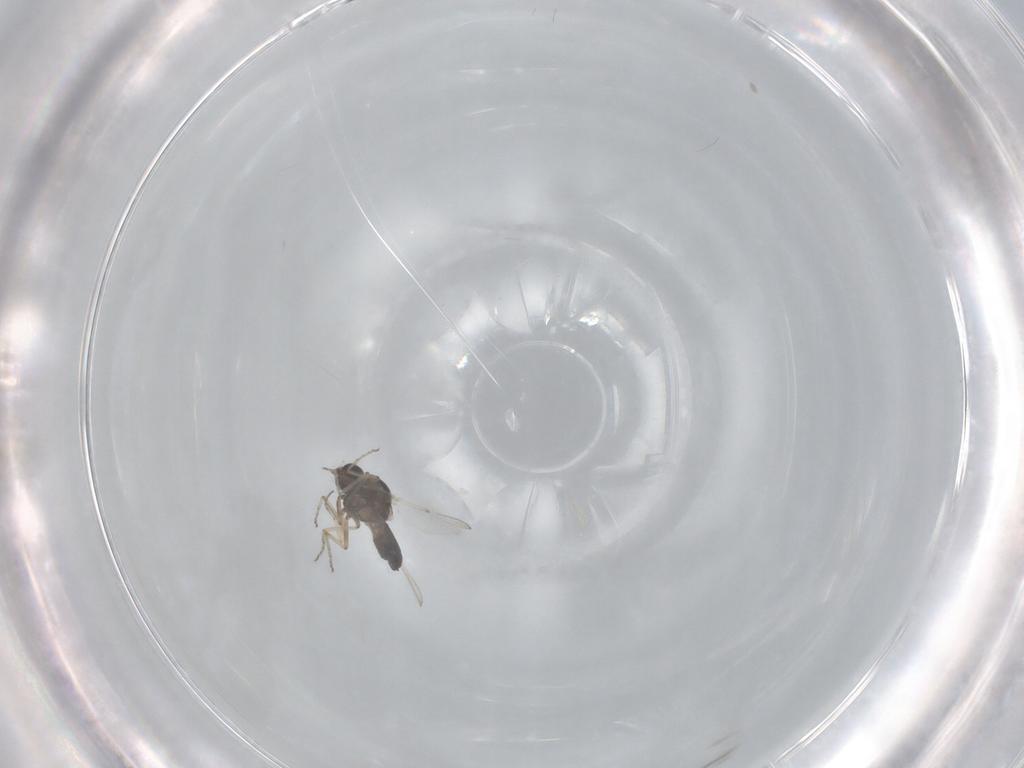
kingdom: Animalia
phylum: Arthropoda
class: Insecta
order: Diptera
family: Ceratopogonidae
